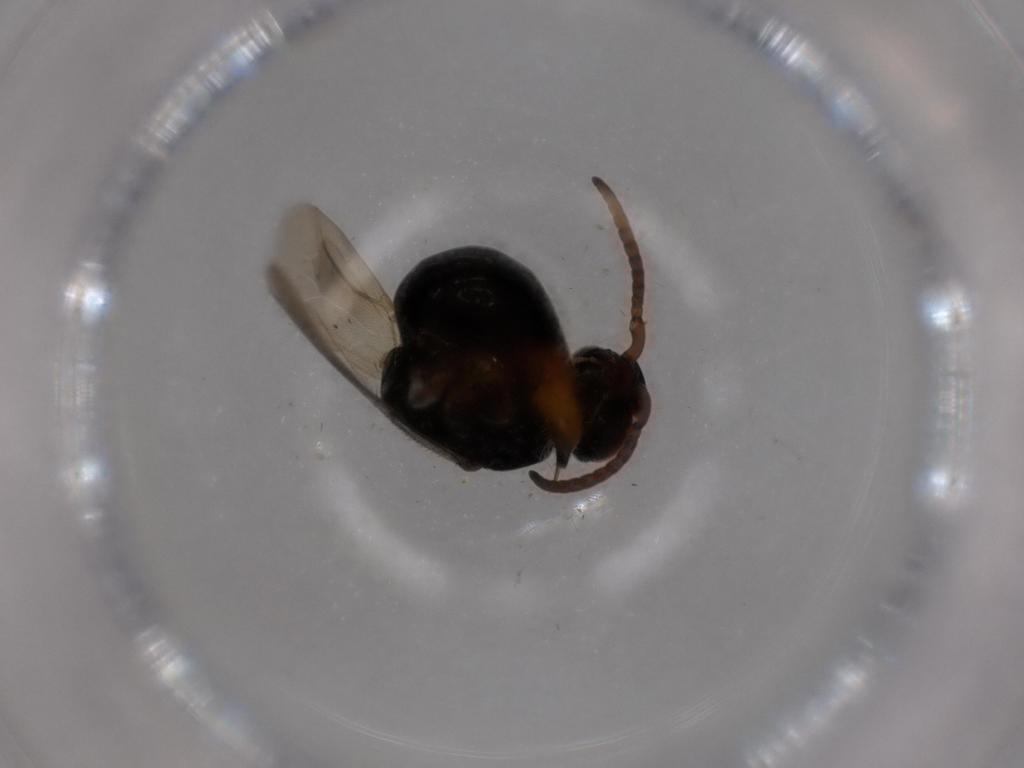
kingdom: Animalia
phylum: Arthropoda
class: Insecta
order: Hymenoptera
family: Bethylidae
